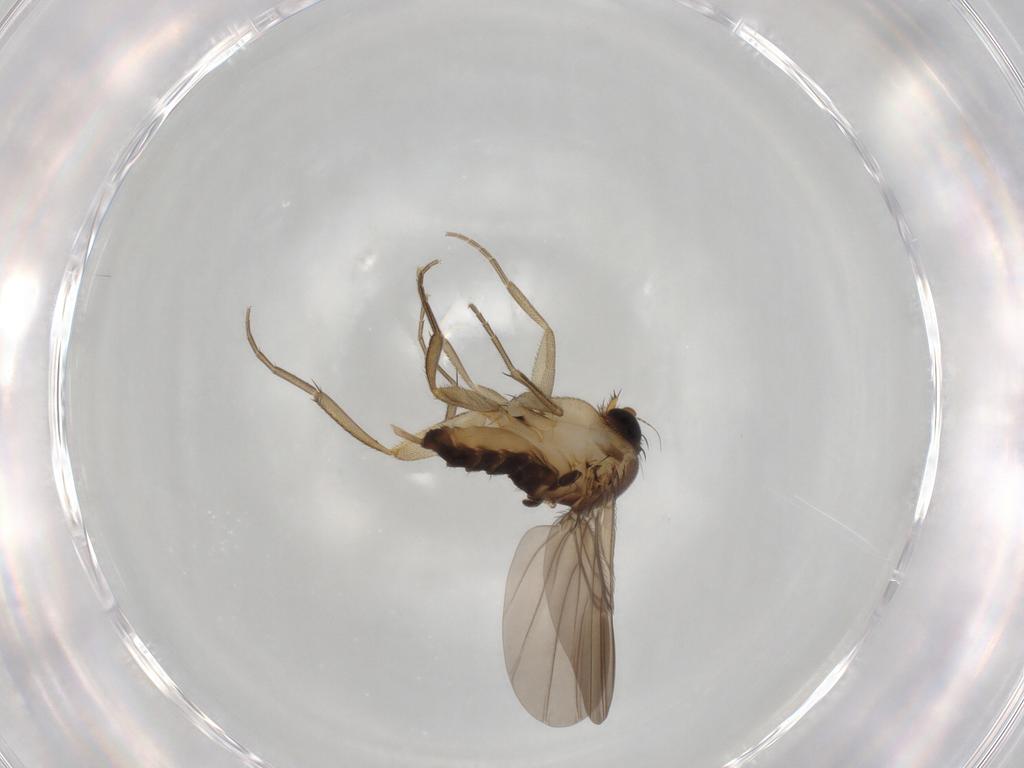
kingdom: Animalia
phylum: Arthropoda
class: Insecta
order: Diptera
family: Phoridae
